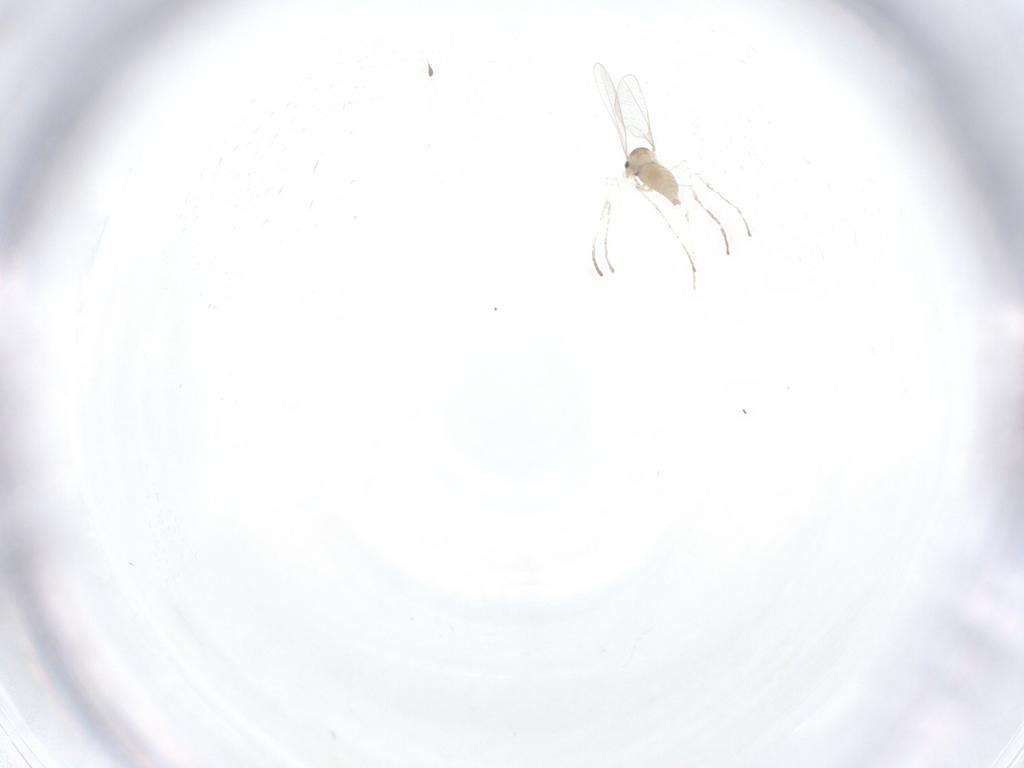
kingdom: Animalia
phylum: Arthropoda
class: Insecta
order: Diptera
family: Cecidomyiidae
